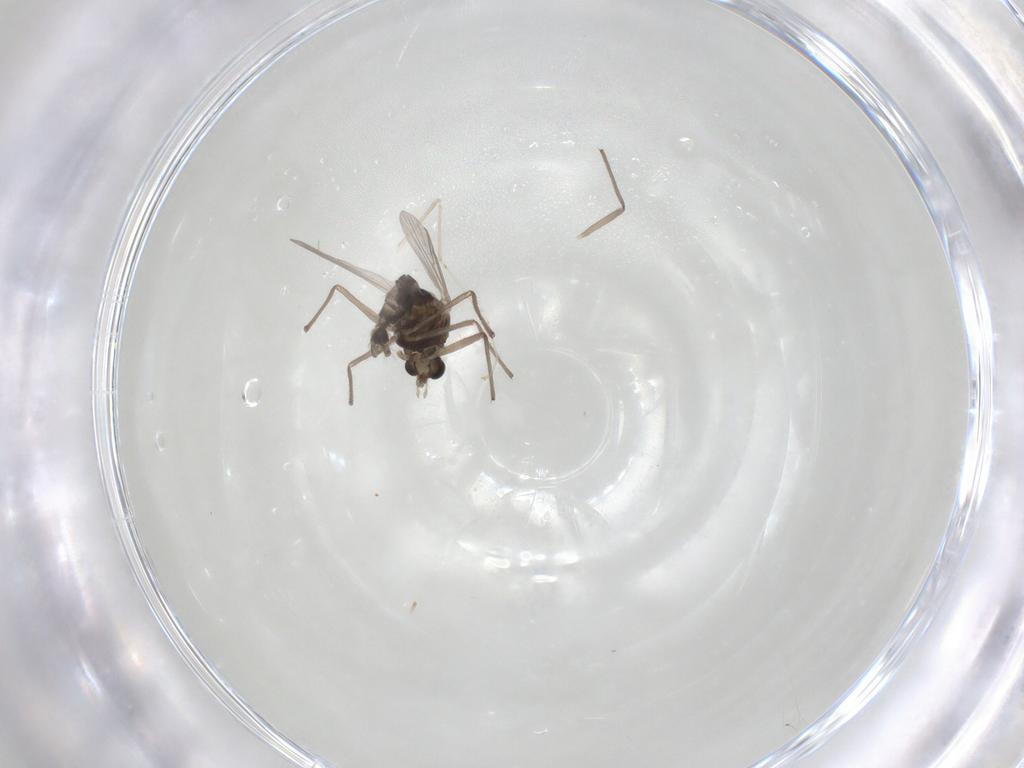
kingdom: Animalia
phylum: Arthropoda
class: Insecta
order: Diptera
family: Chironomidae
